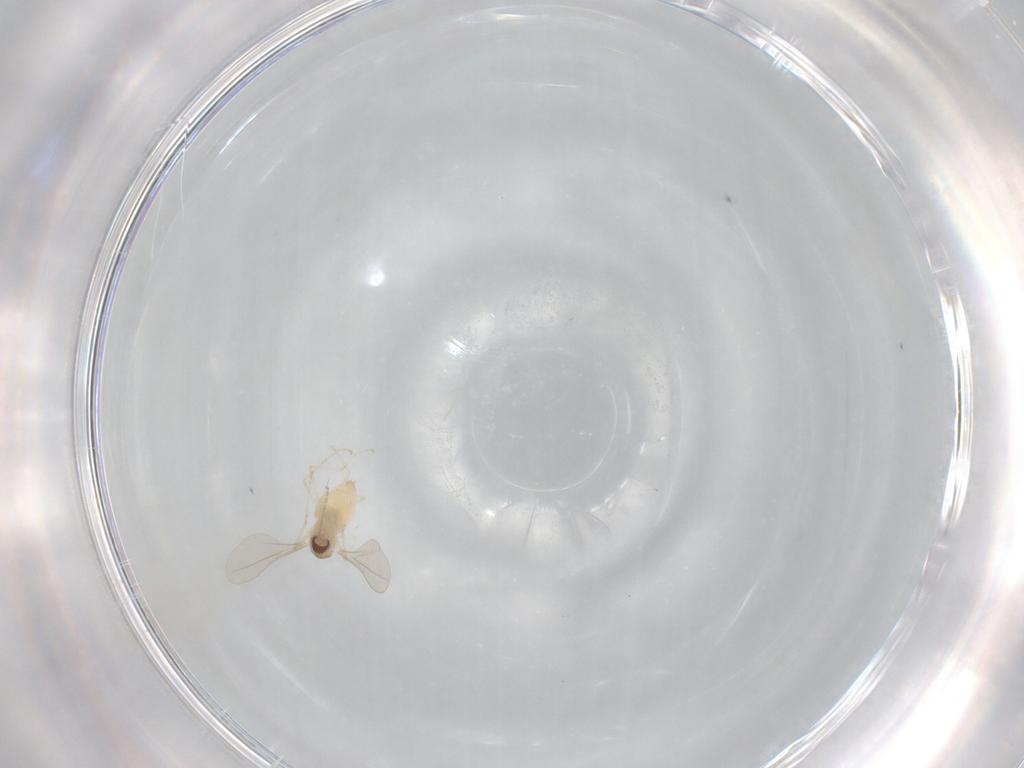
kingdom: Animalia
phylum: Arthropoda
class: Insecta
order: Diptera
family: Cecidomyiidae
